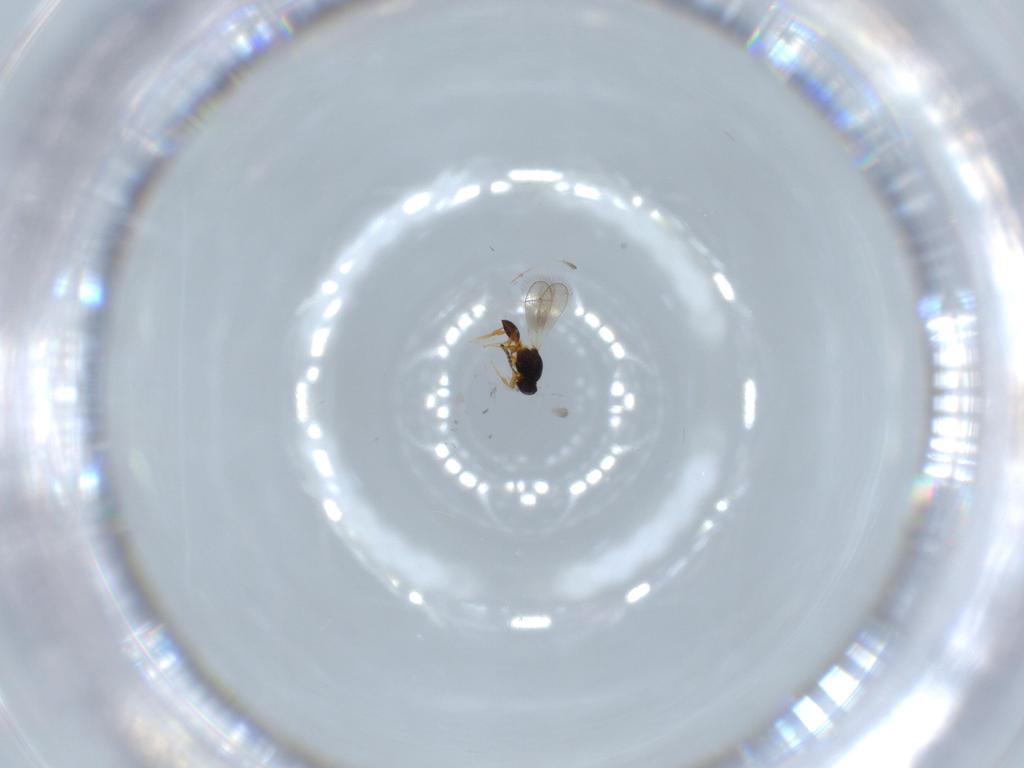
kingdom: Animalia
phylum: Arthropoda
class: Insecta
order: Hymenoptera
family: Platygastridae
